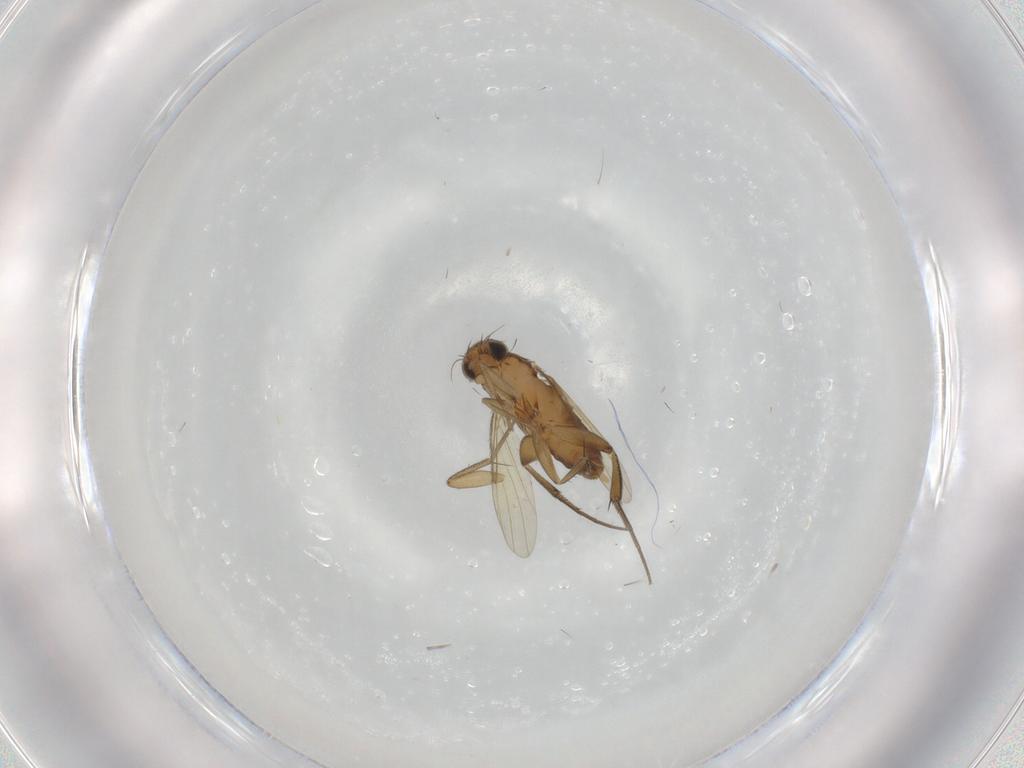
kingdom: Animalia
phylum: Arthropoda
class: Insecta
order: Diptera
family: Phoridae
